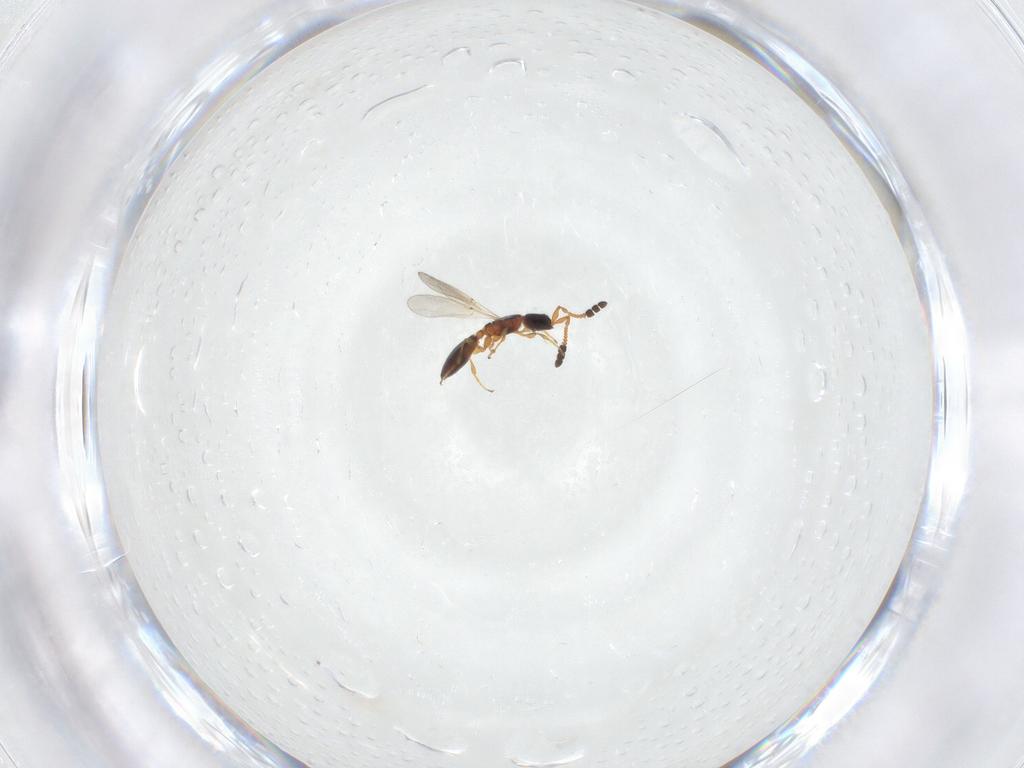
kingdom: Animalia
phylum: Arthropoda
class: Insecta
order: Hymenoptera
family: Diapriidae
